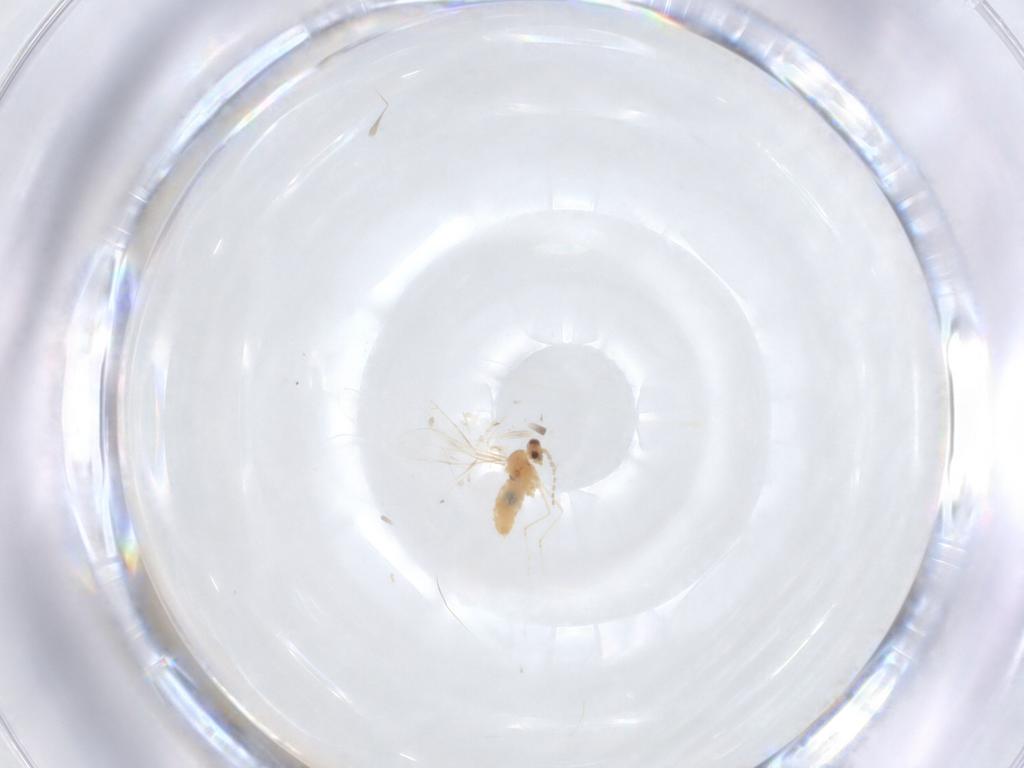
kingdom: Animalia
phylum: Arthropoda
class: Insecta
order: Diptera
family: Cecidomyiidae
